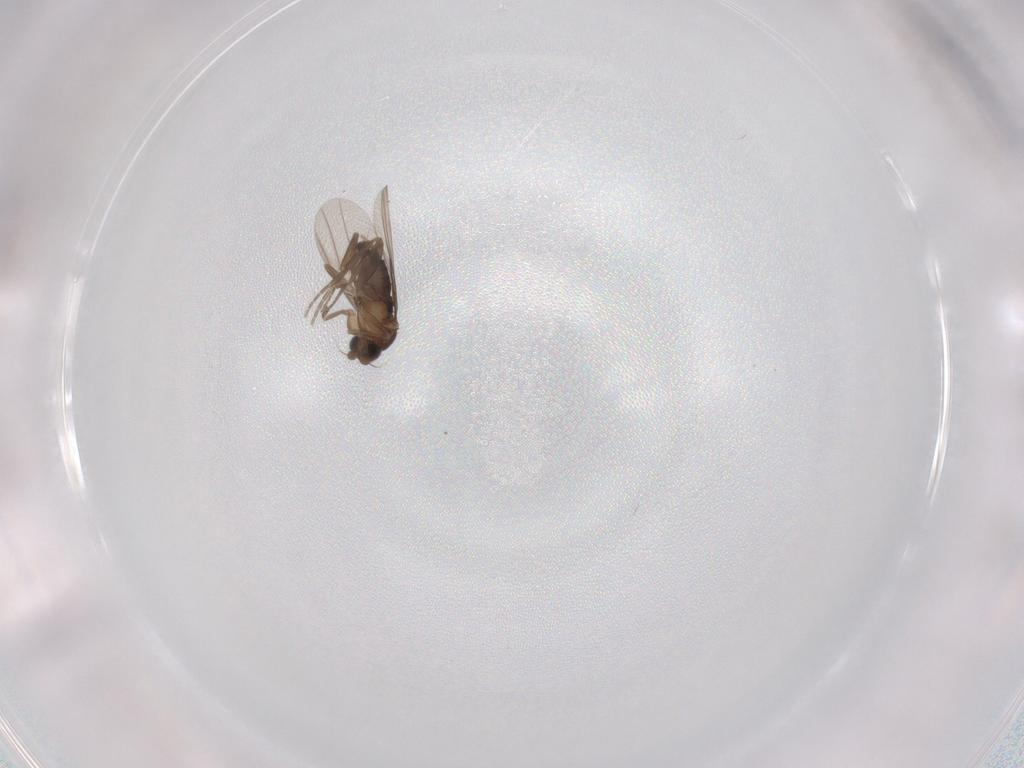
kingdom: Animalia
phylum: Arthropoda
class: Insecta
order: Diptera
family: Phoridae
